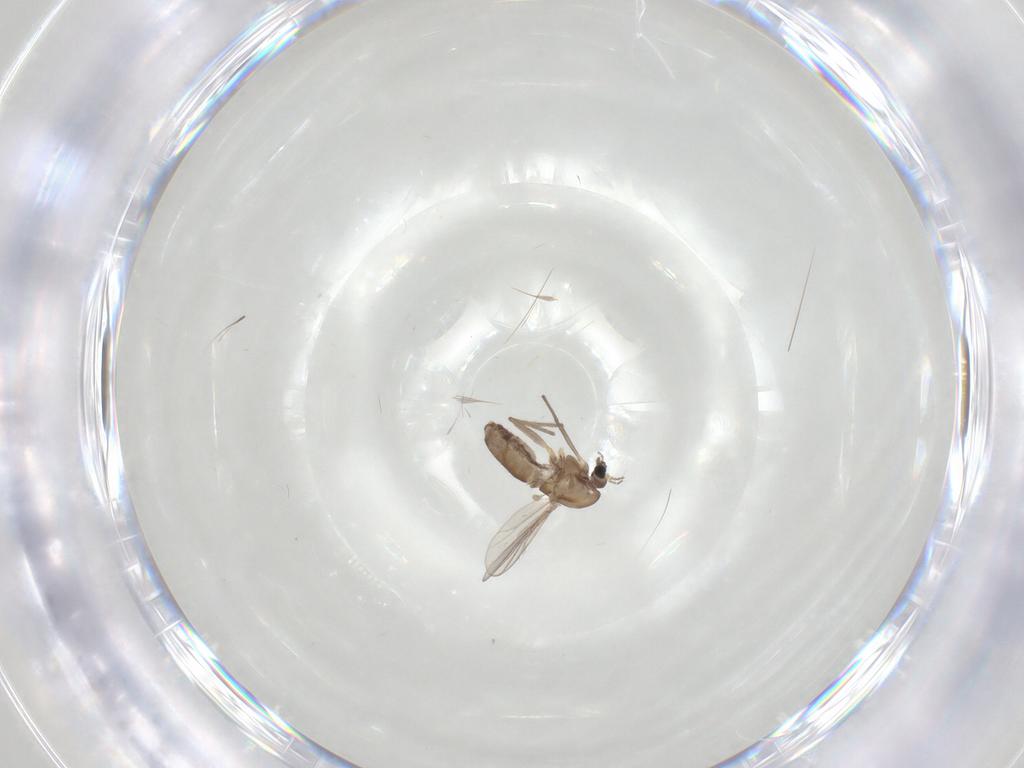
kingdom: Animalia
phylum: Arthropoda
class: Insecta
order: Diptera
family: Chironomidae
